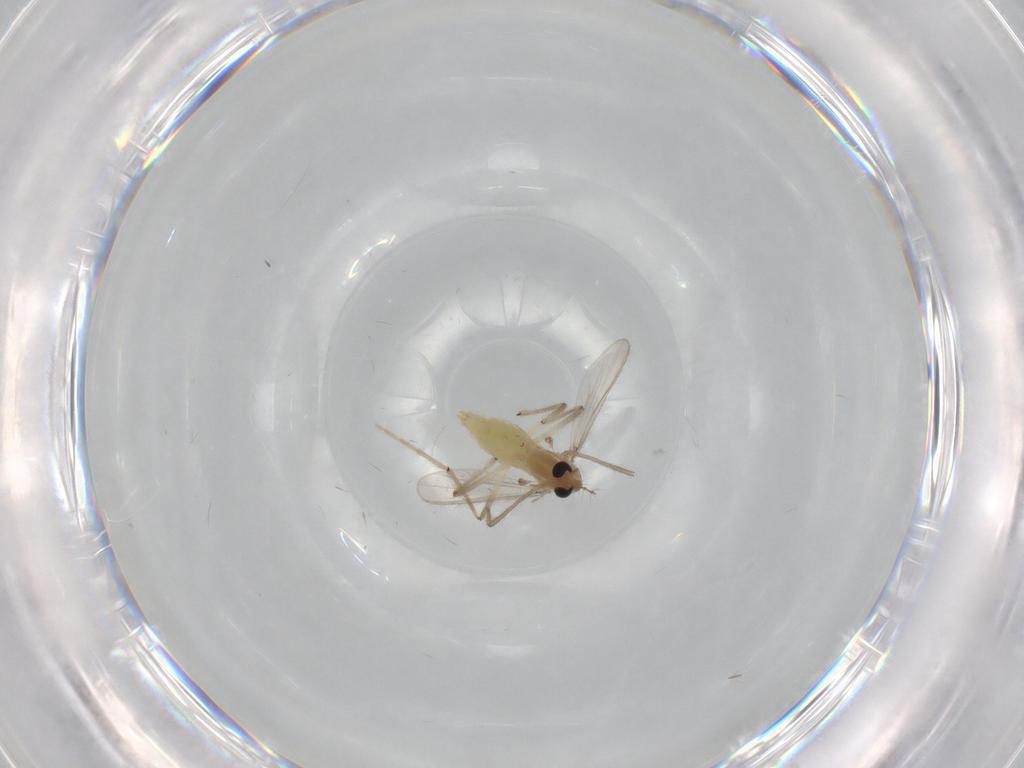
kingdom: Animalia
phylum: Arthropoda
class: Insecta
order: Diptera
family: Chironomidae
